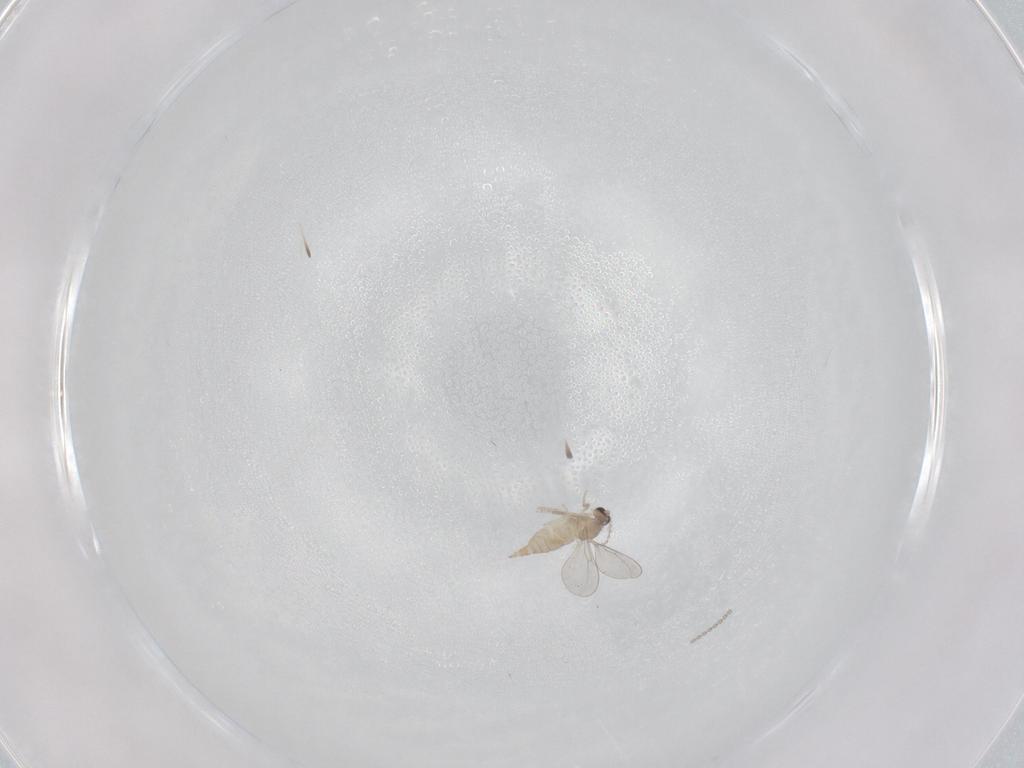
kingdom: Animalia
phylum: Arthropoda
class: Insecta
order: Diptera
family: Cecidomyiidae
